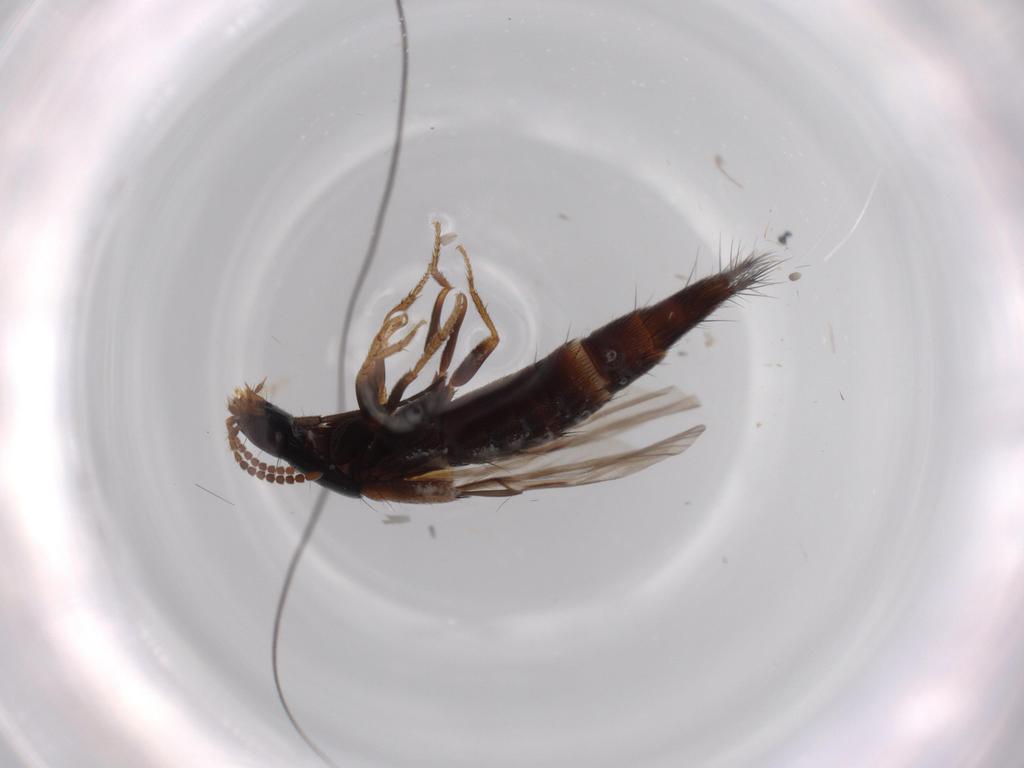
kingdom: Animalia
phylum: Arthropoda
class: Insecta
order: Coleoptera
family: Staphylinidae
